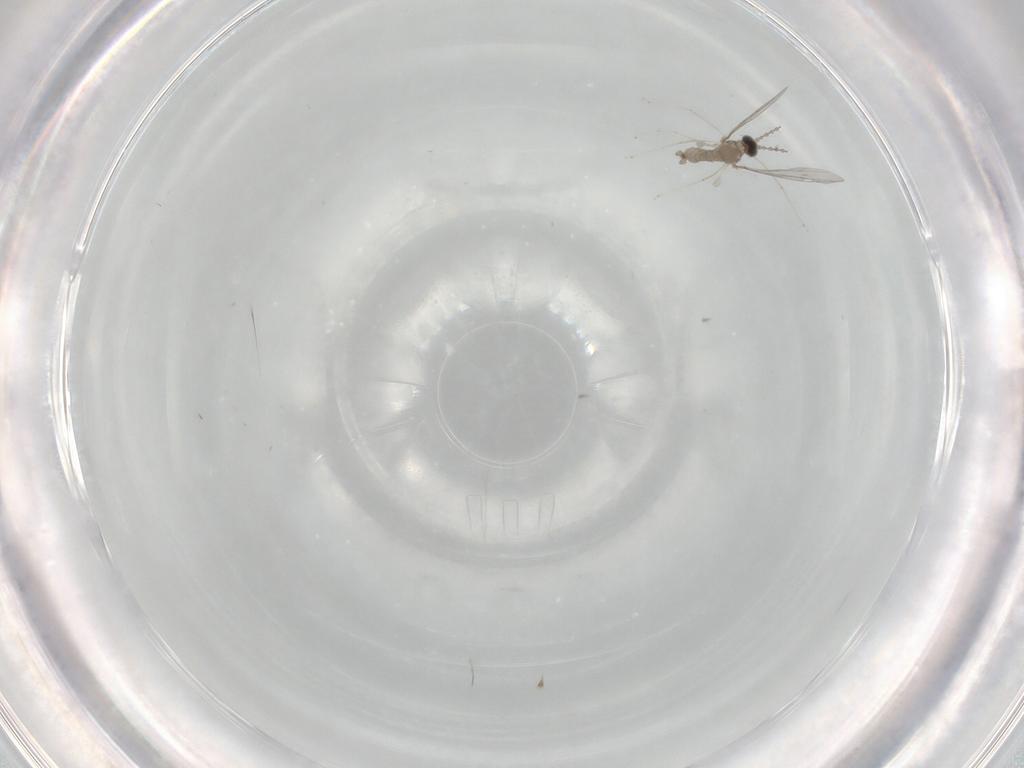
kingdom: Animalia
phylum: Arthropoda
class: Insecta
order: Diptera
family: Cecidomyiidae
